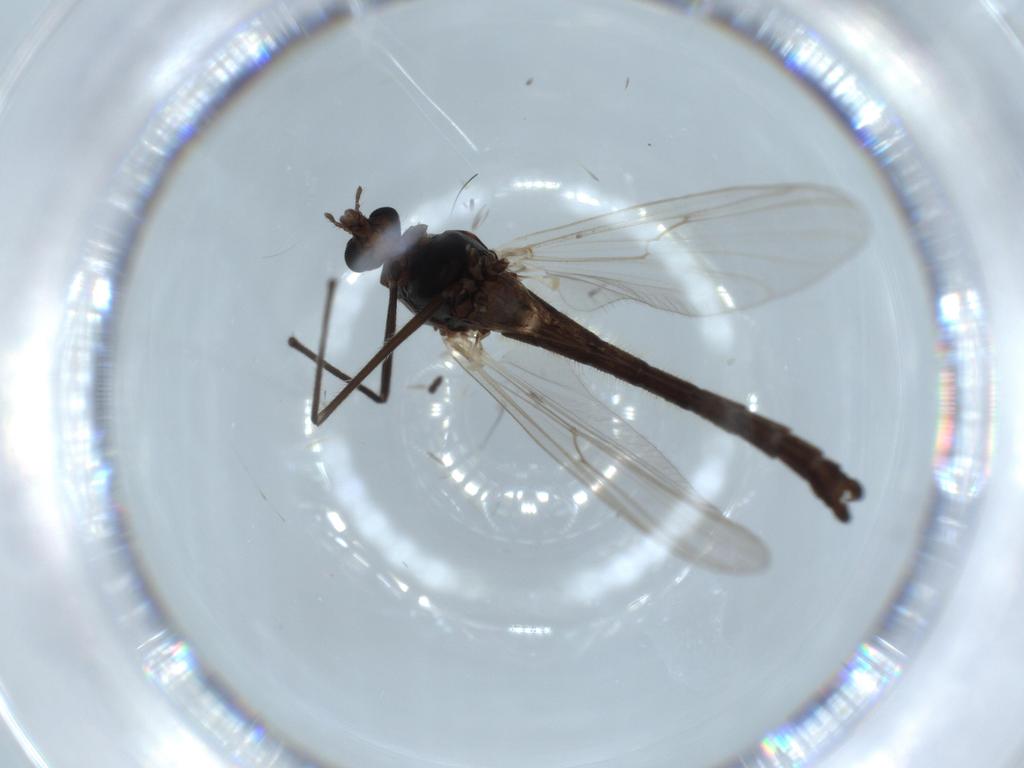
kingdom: Animalia
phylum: Arthropoda
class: Insecta
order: Diptera
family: Chironomidae
